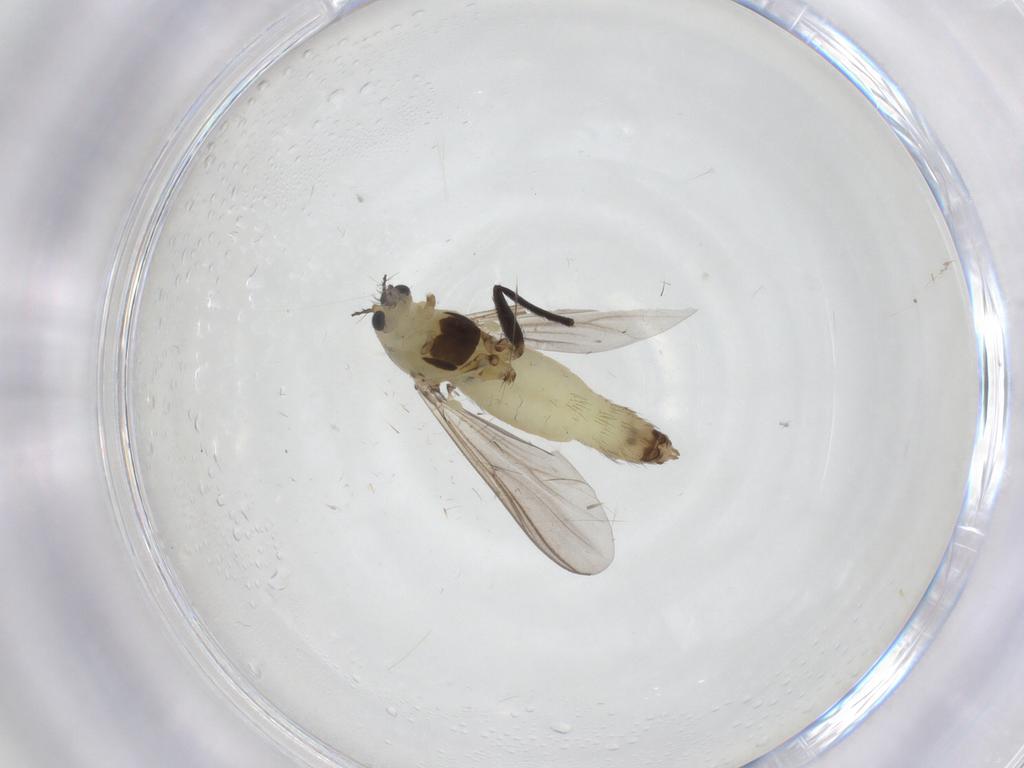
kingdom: Animalia
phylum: Arthropoda
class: Insecta
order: Diptera
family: Chironomidae
